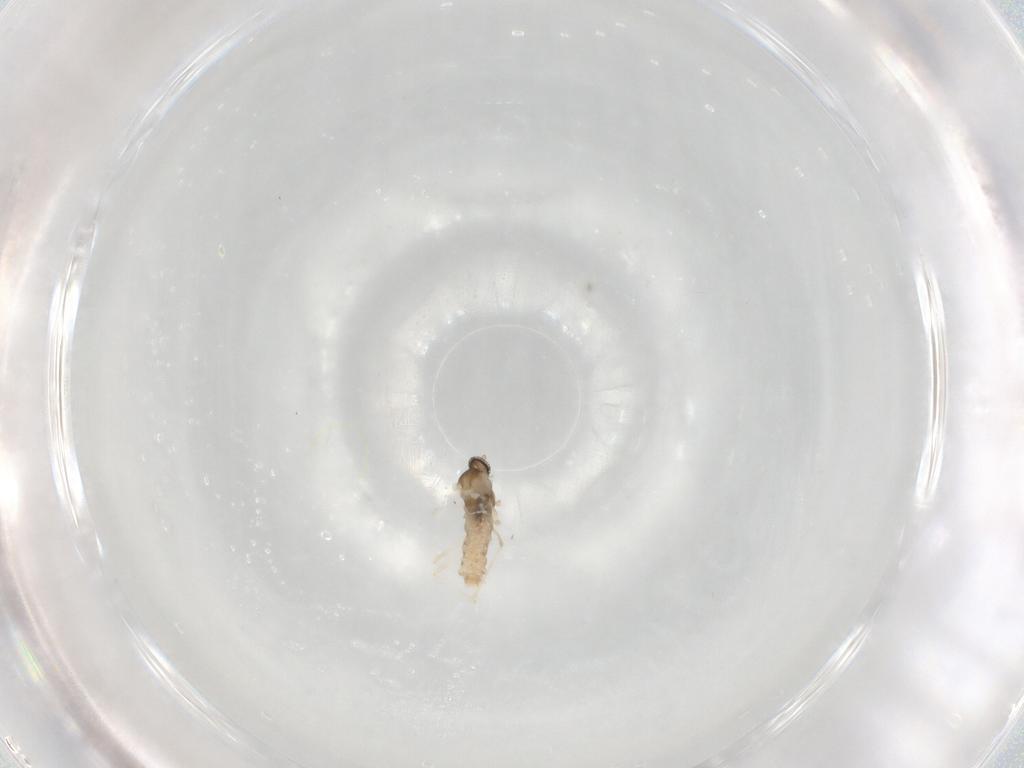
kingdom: Animalia
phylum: Arthropoda
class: Insecta
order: Diptera
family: Cecidomyiidae
